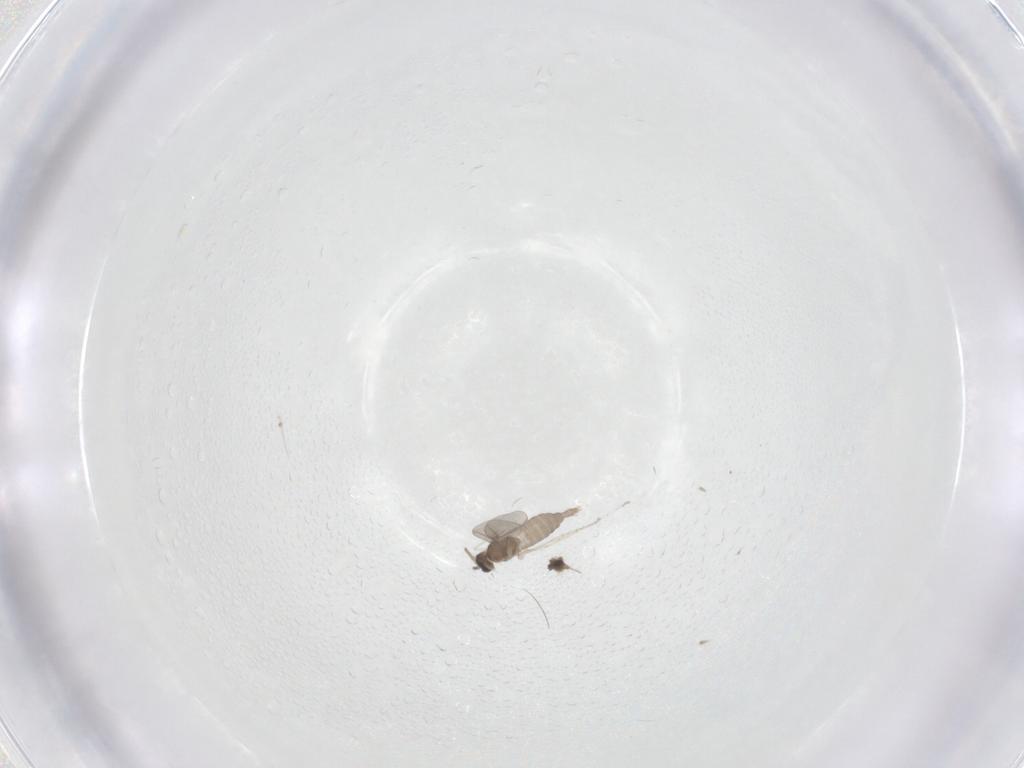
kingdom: Animalia
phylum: Arthropoda
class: Insecta
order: Diptera
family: Cecidomyiidae
